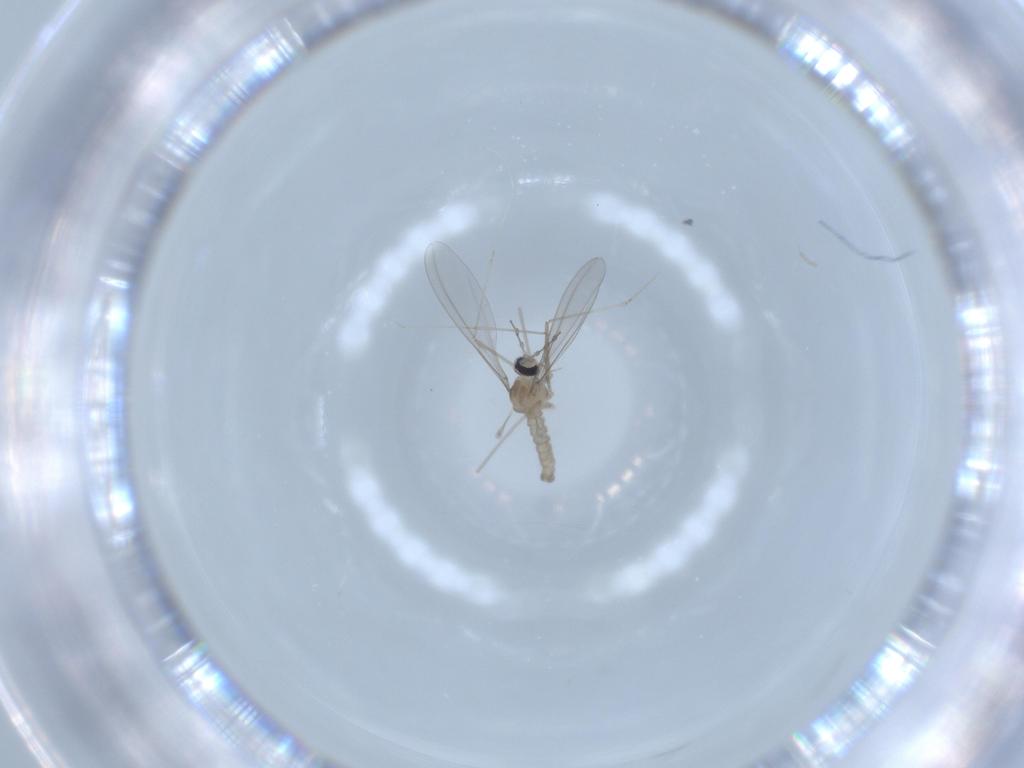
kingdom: Animalia
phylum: Arthropoda
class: Insecta
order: Diptera
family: Cecidomyiidae
